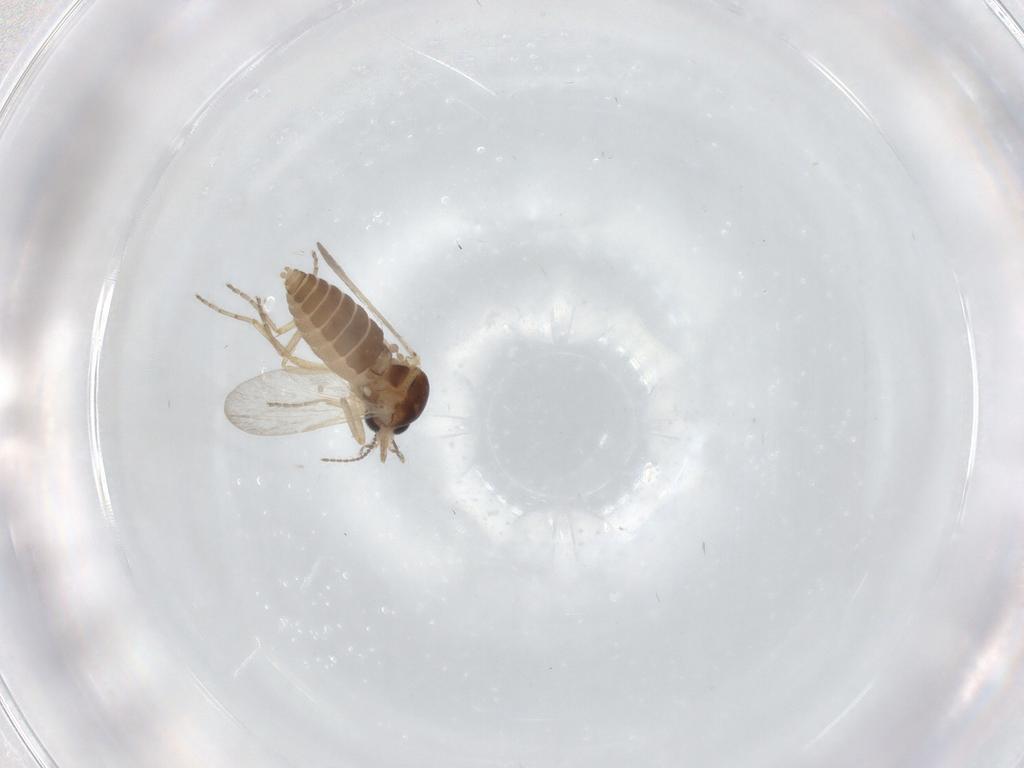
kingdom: Animalia
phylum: Arthropoda
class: Insecta
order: Diptera
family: Ceratopogonidae
